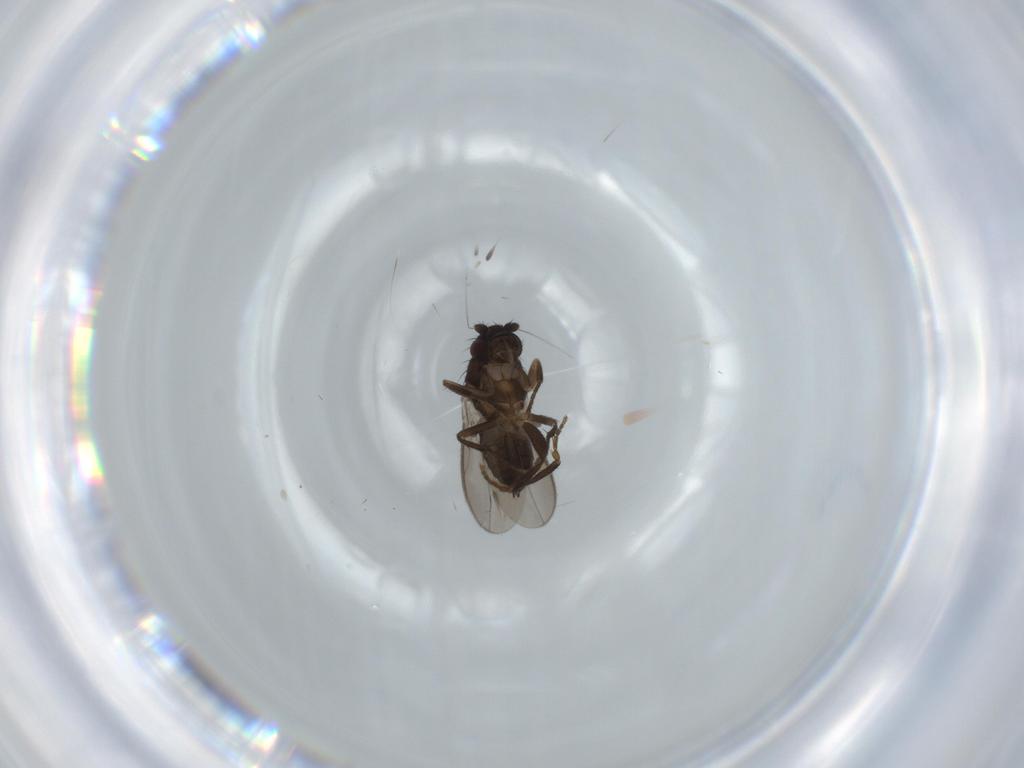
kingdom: Animalia
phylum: Arthropoda
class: Insecta
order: Diptera
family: Sphaeroceridae
